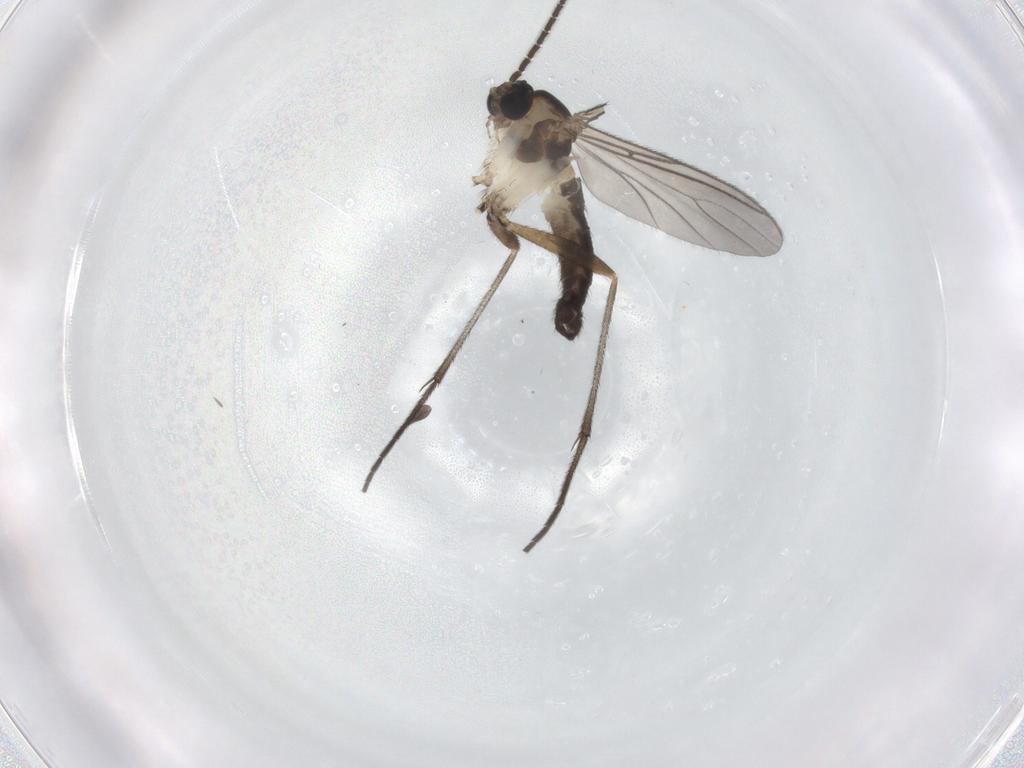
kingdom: Animalia
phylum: Arthropoda
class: Insecta
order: Diptera
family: Sciaridae
